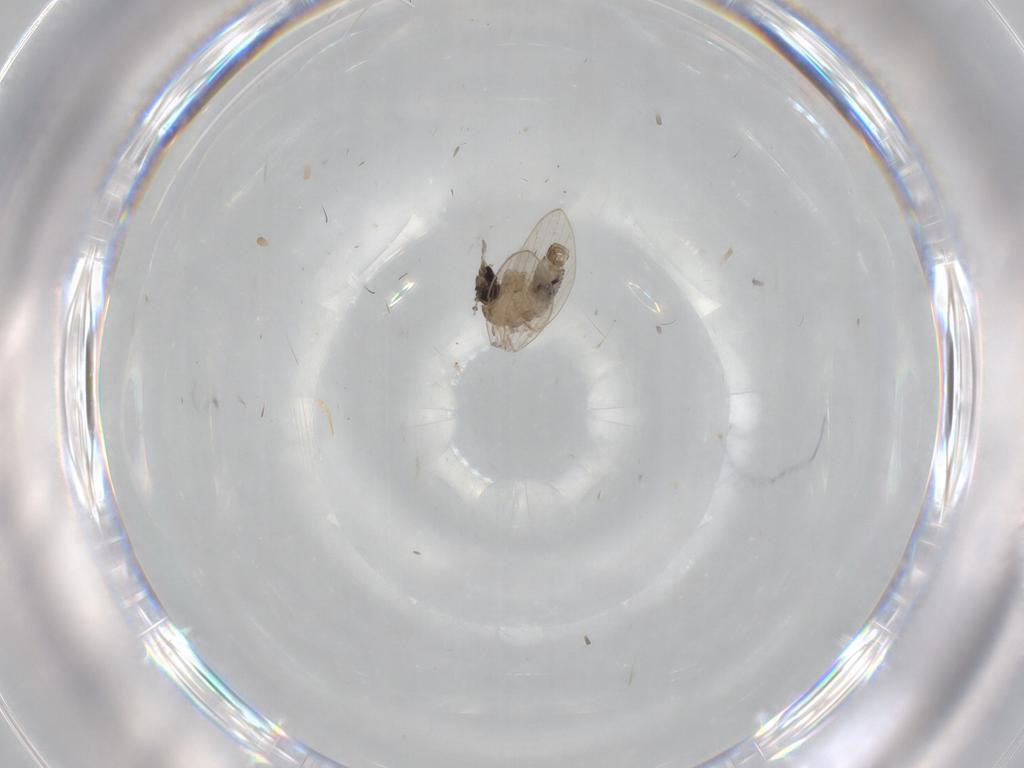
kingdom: Animalia
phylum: Arthropoda
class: Insecta
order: Diptera
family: Psychodidae
